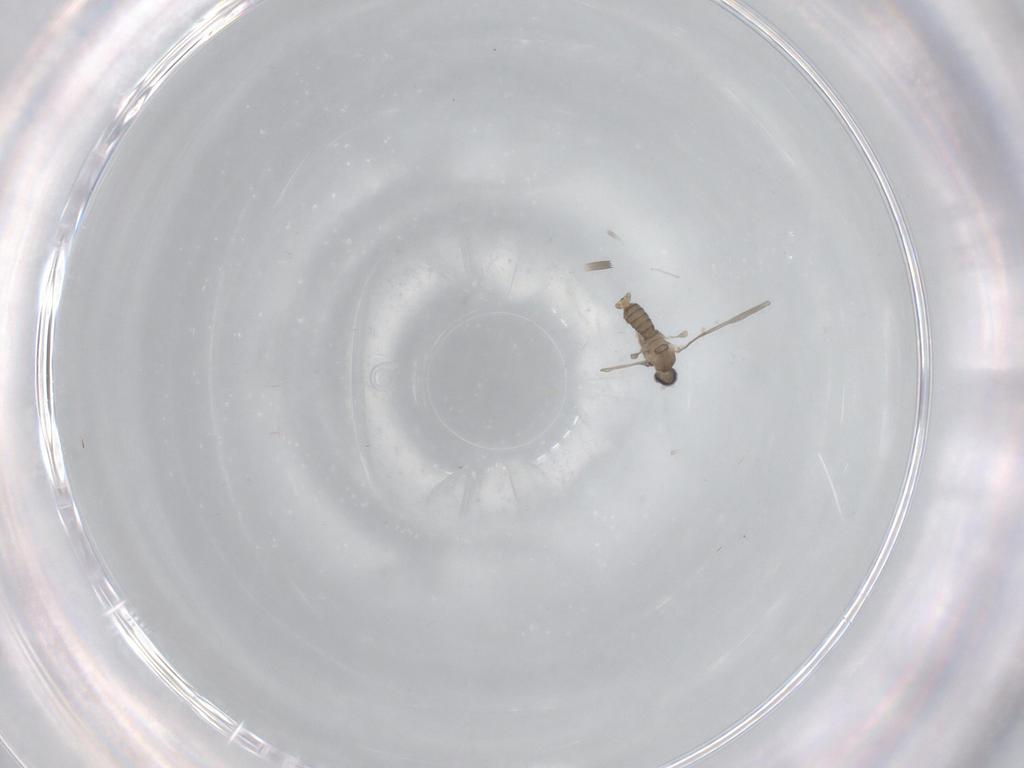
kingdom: Animalia
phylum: Arthropoda
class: Insecta
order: Diptera
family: Cecidomyiidae
